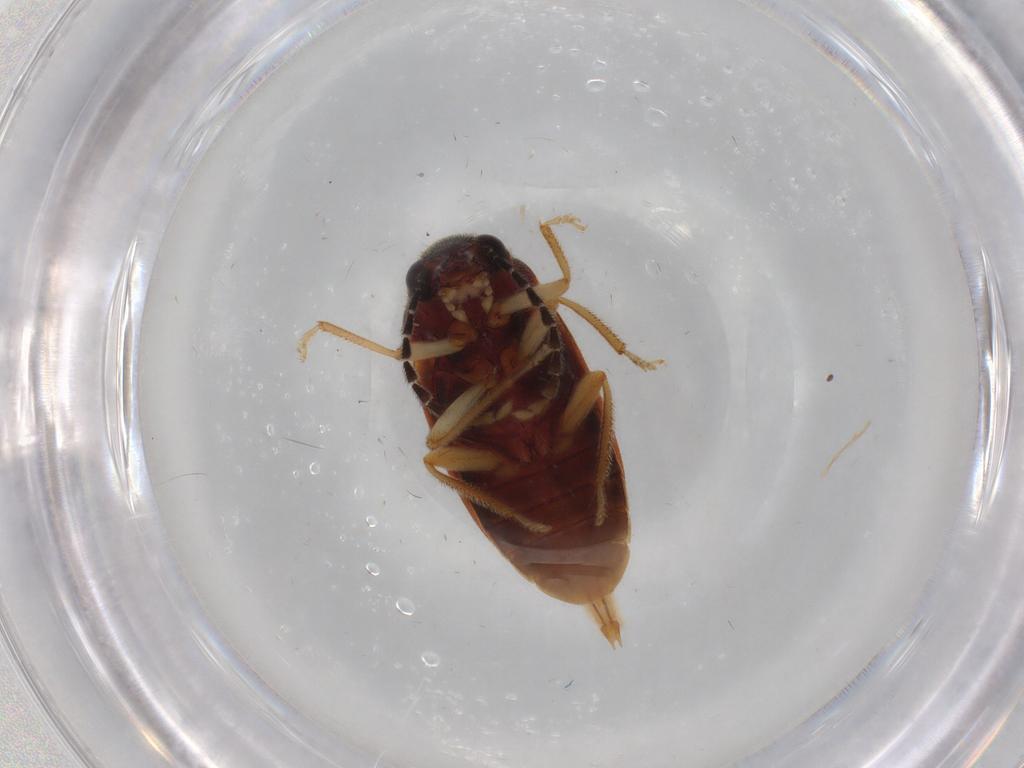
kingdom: Animalia
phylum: Arthropoda
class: Insecta
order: Coleoptera
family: Ptilodactylidae
